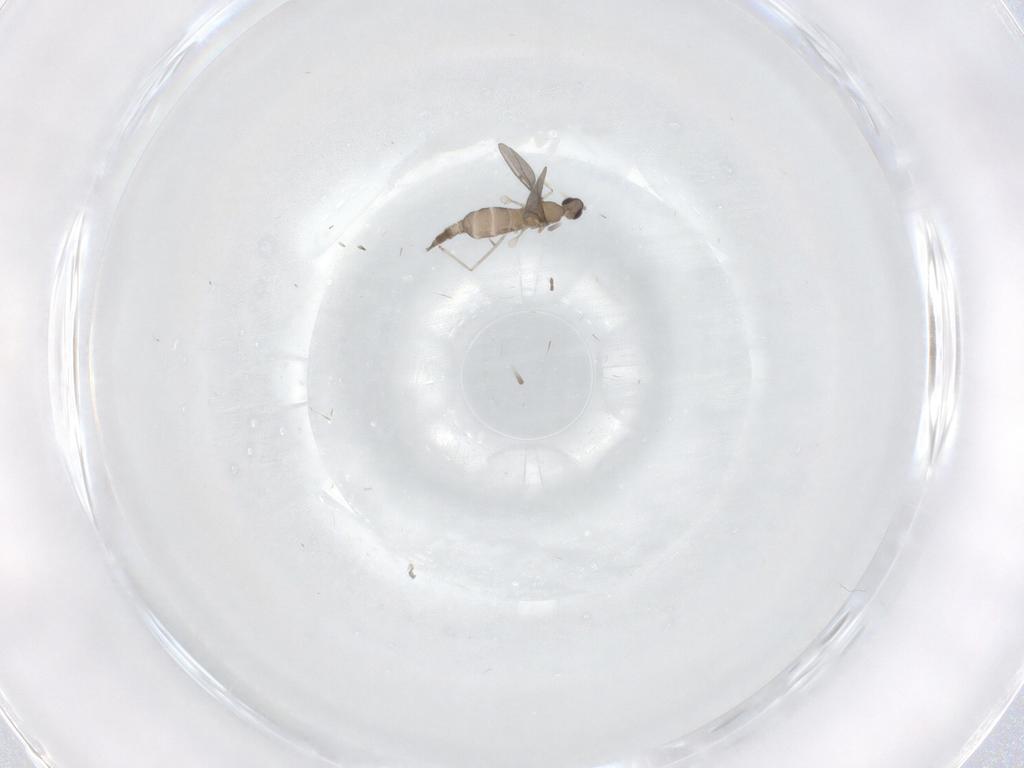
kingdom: Animalia
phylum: Arthropoda
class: Insecta
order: Diptera
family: Cecidomyiidae
